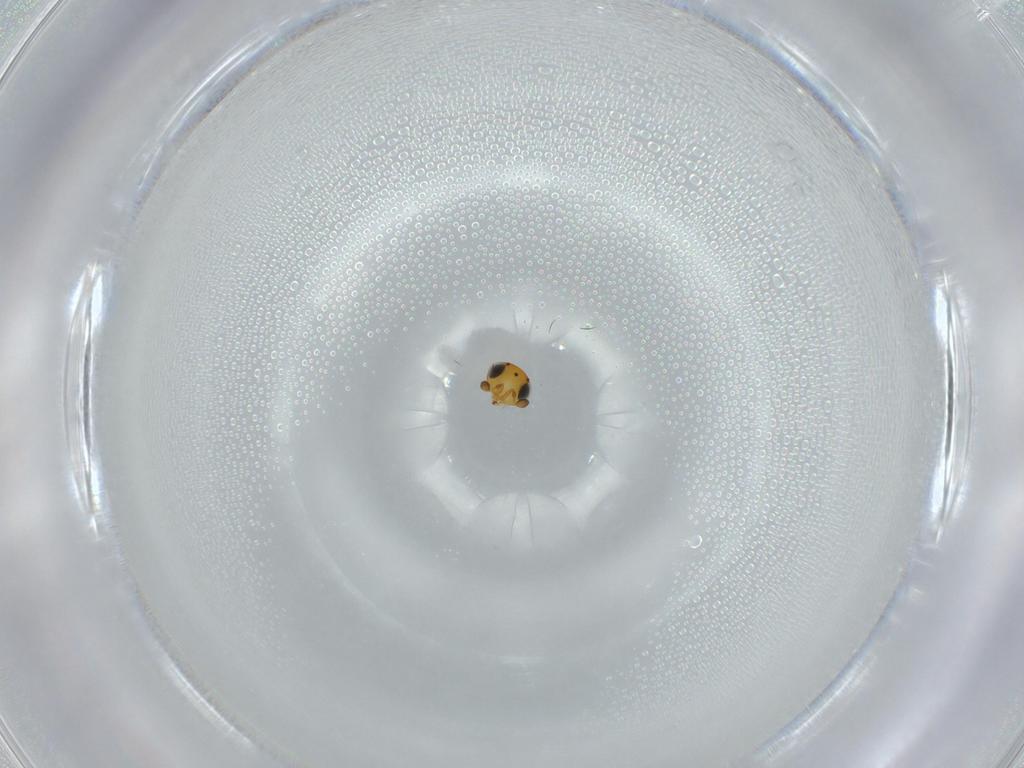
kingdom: Animalia
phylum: Arthropoda
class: Insecta
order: Hymenoptera
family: Scelionidae
